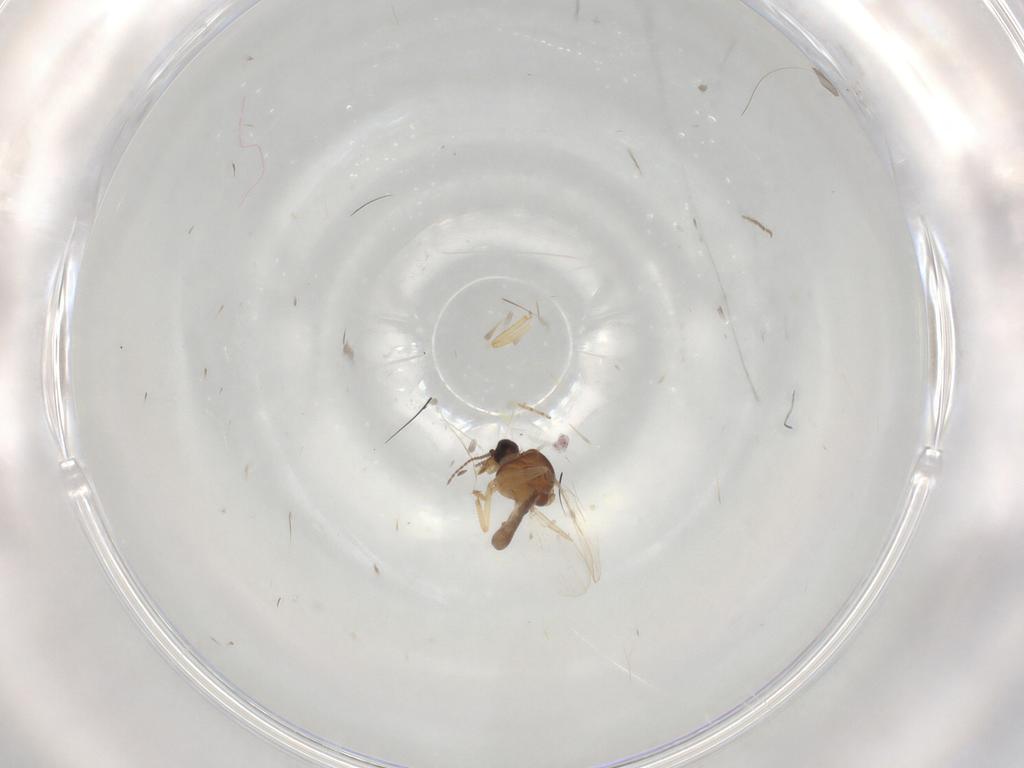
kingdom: Animalia
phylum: Arthropoda
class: Insecta
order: Diptera
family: Ceratopogonidae
